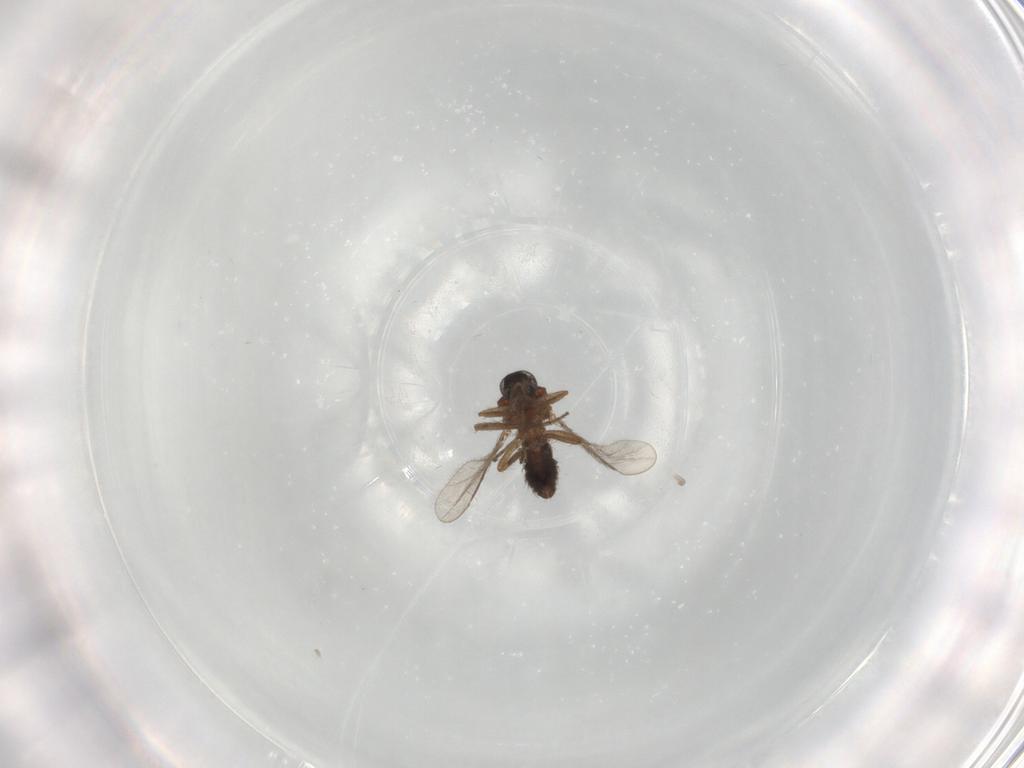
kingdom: Animalia
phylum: Arthropoda
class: Insecta
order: Diptera
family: Ceratopogonidae
